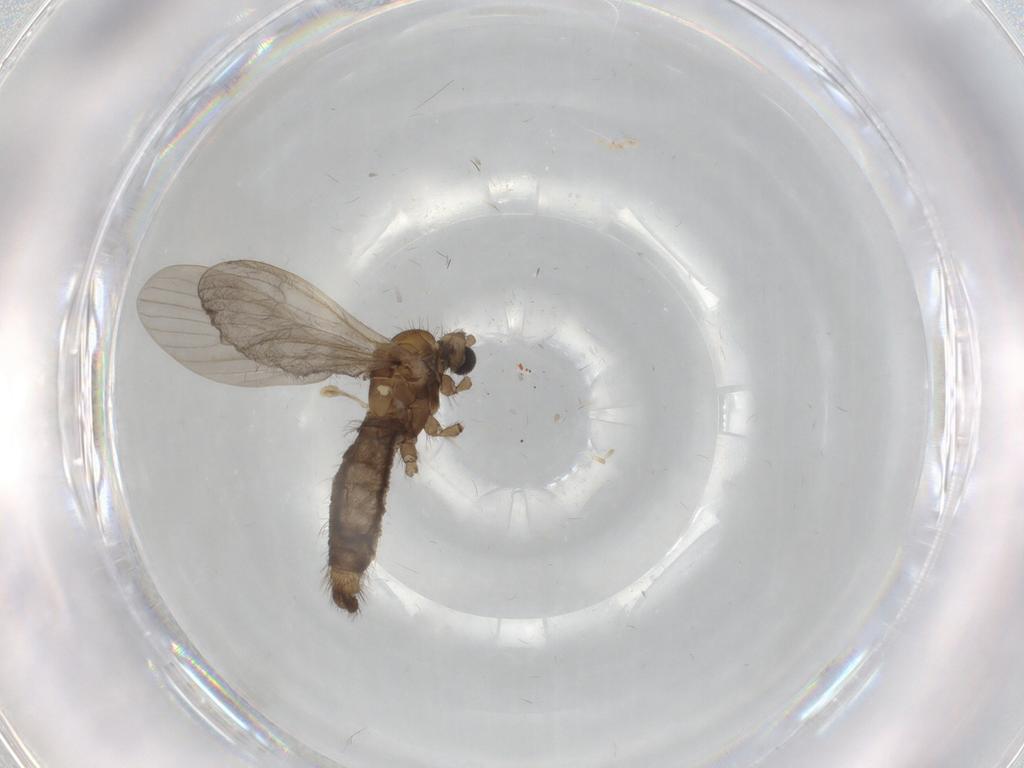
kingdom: Animalia
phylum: Arthropoda
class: Insecta
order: Diptera
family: Limoniidae
